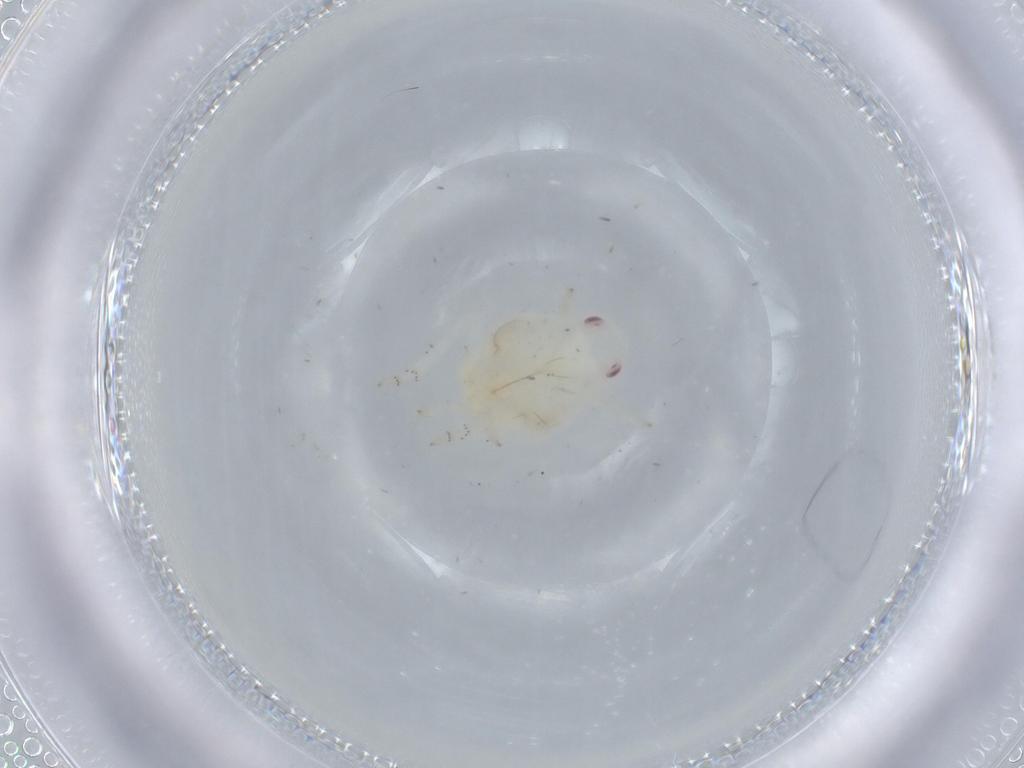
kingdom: Animalia
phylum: Arthropoda
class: Insecta
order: Hemiptera
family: Flatidae
